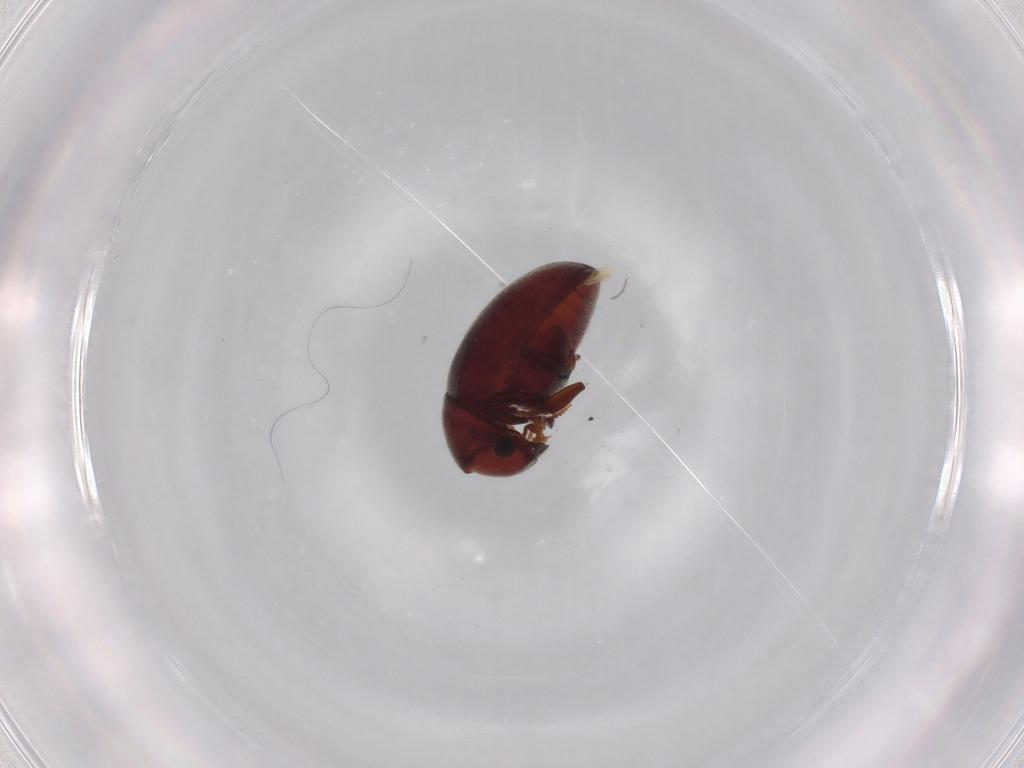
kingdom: Animalia
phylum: Arthropoda
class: Insecta
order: Coleoptera
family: Ptinidae
